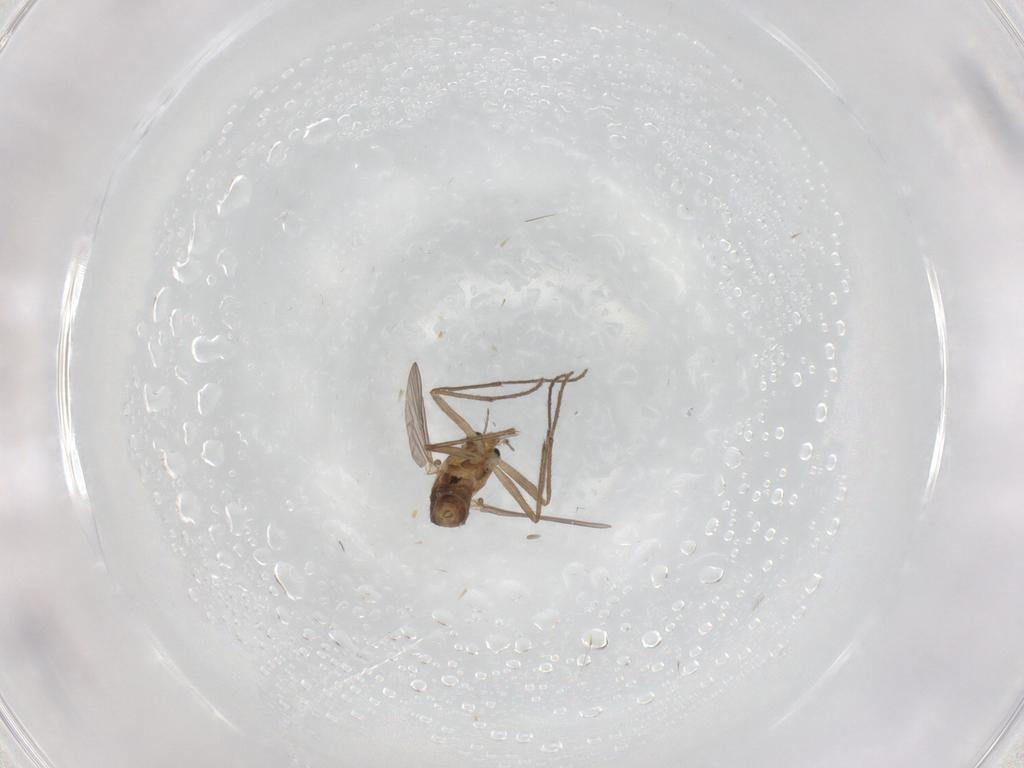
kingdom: Animalia
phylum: Arthropoda
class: Insecta
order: Diptera
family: Chironomidae
